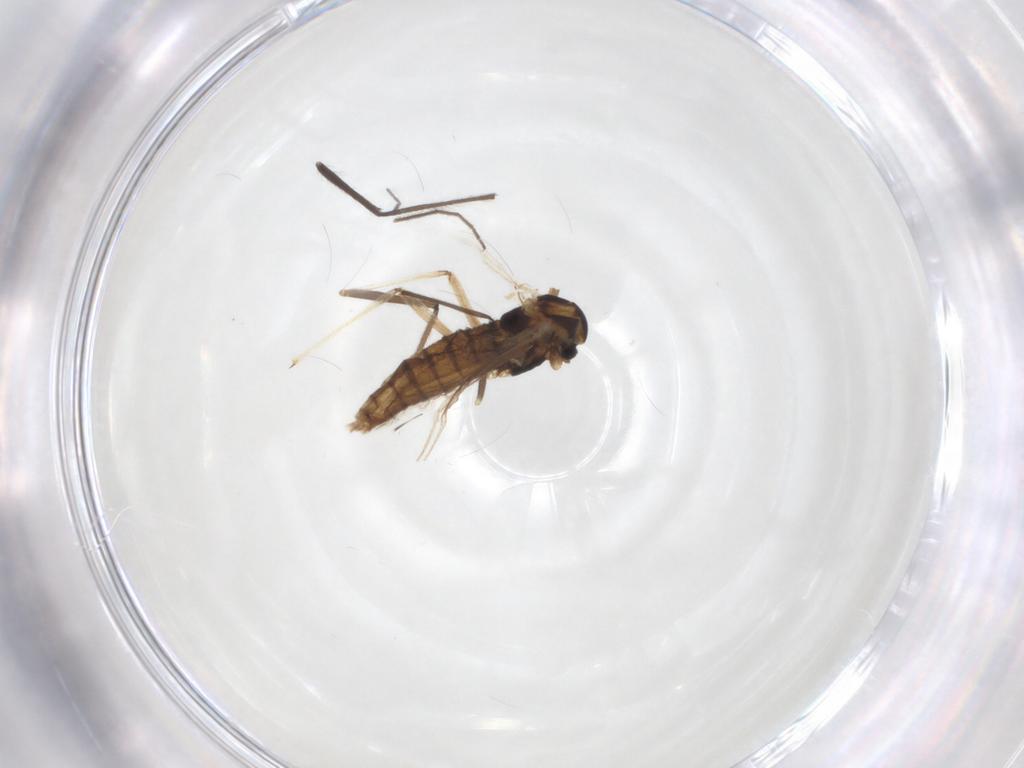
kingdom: Animalia
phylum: Arthropoda
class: Insecta
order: Diptera
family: Chironomidae
